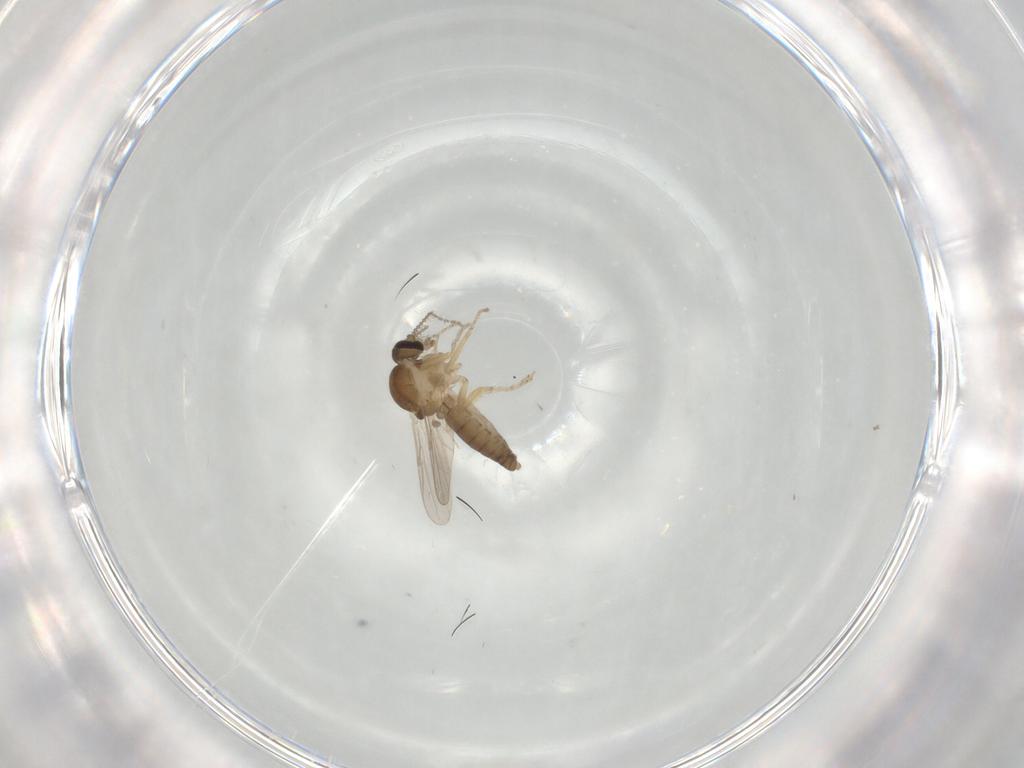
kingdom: Animalia
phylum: Arthropoda
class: Insecta
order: Diptera
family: Ceratopogonidae
